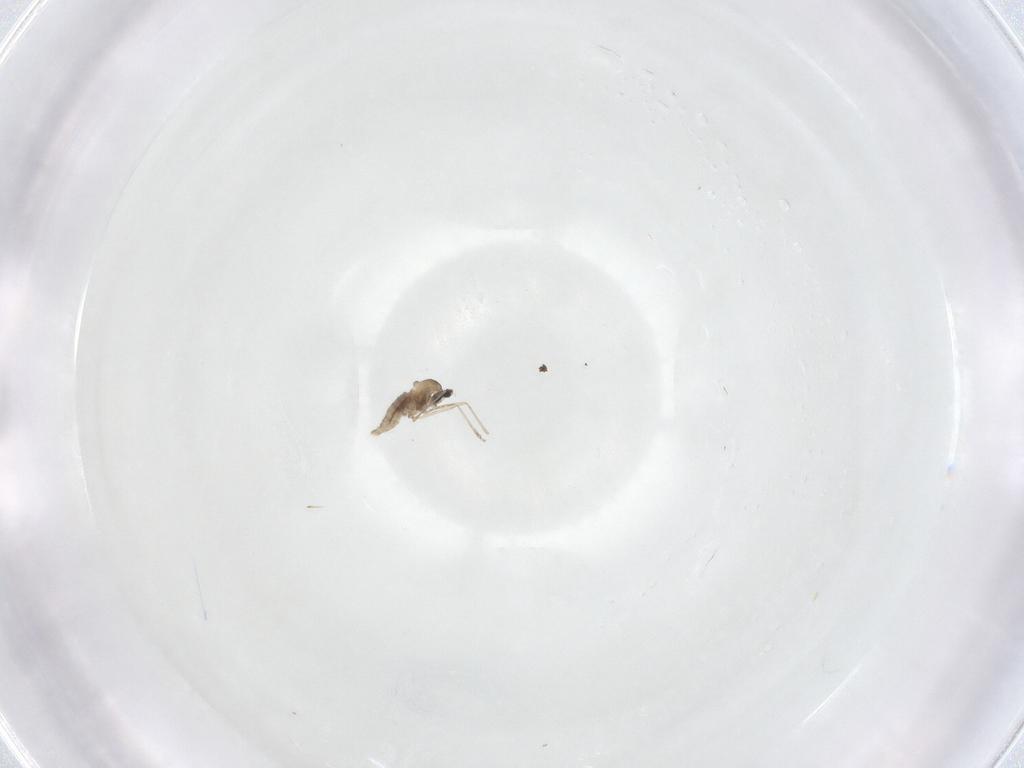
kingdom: Animalia
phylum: Arthropoda
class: Insecta
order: Diptera
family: Cecidomyiidae
